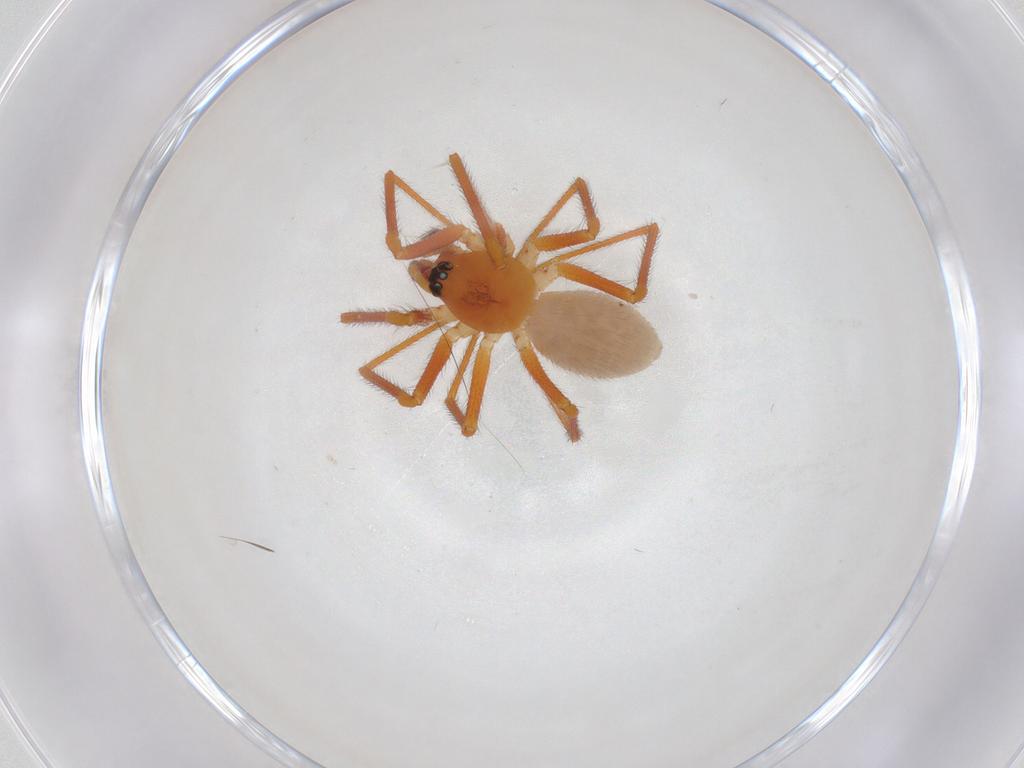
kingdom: Animalia
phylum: Arthropoda
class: Arachnida
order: Araneae
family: Linyphiidae
